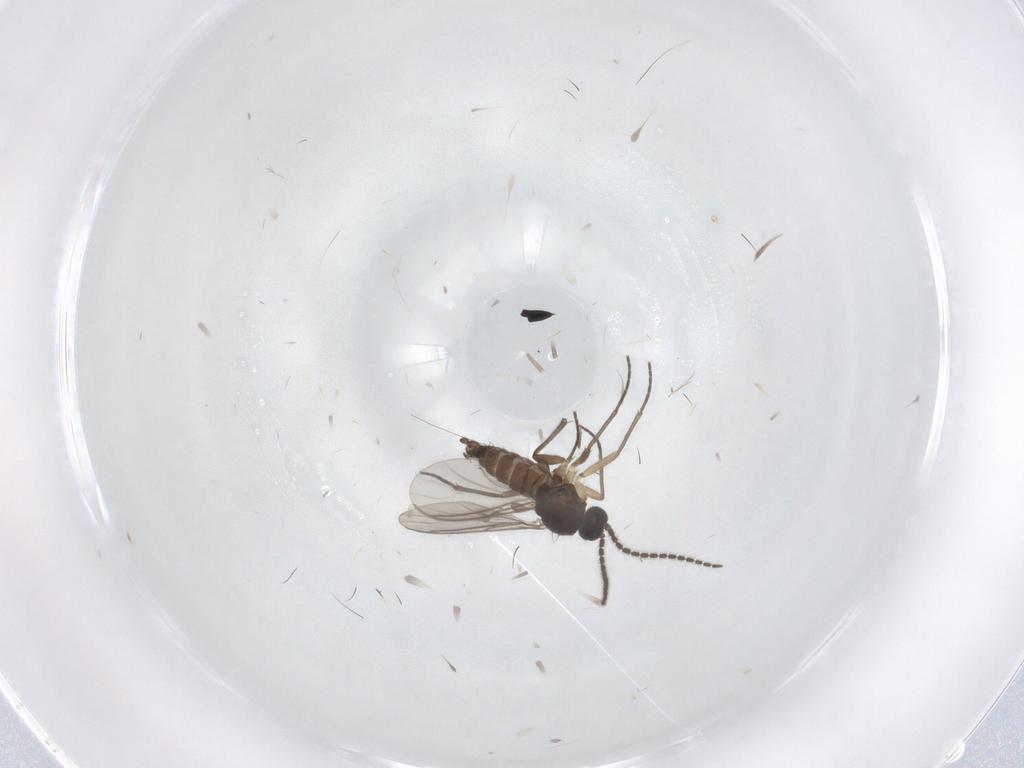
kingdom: Animalia
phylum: Arthropoda
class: Insecta
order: Diptera
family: Sciaridae
